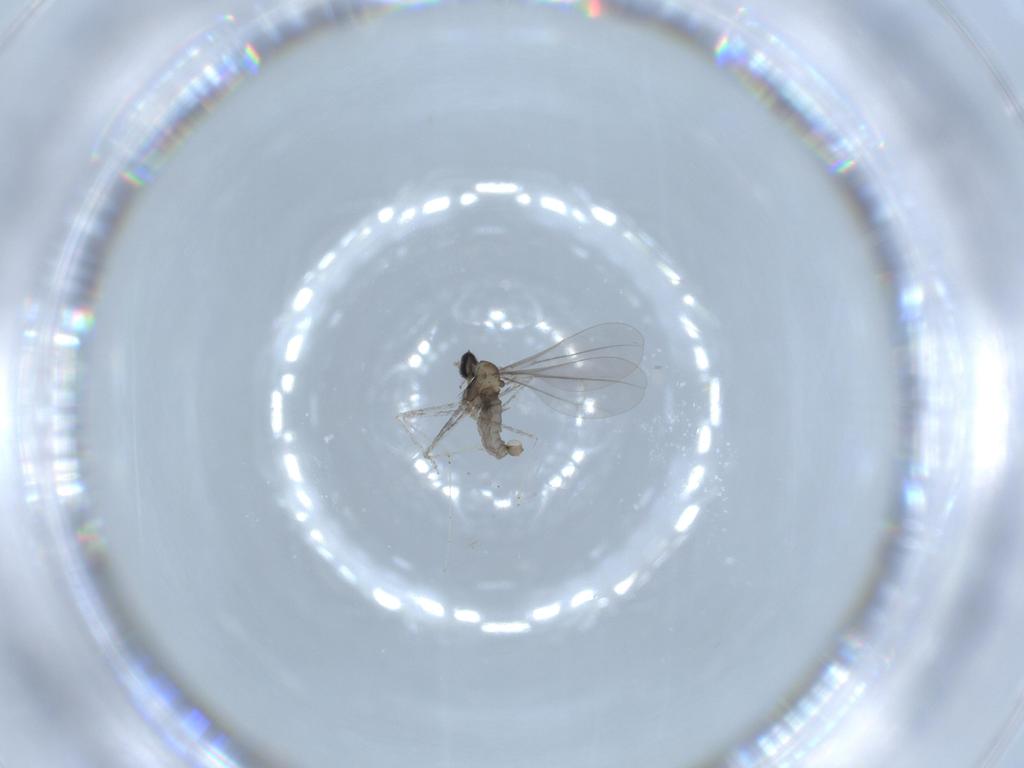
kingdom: Animalia
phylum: Arthropoda
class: Insecta
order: Diptera
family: Cecidomyiidae
